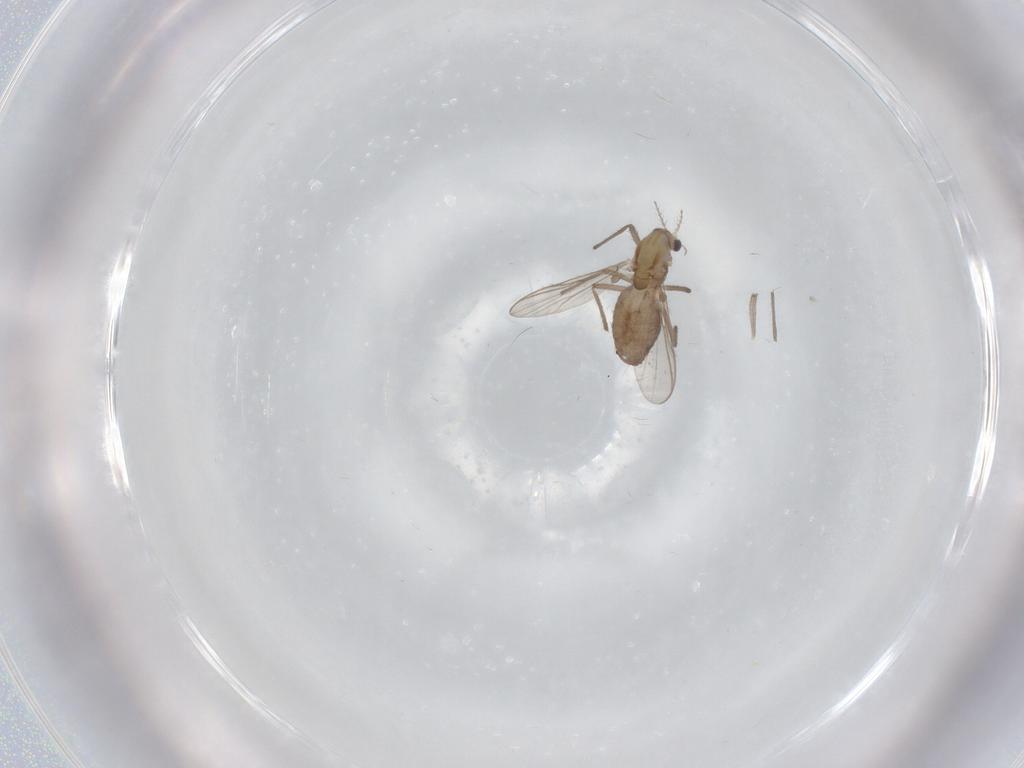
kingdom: Animalia
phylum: Arthropoda
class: Insecta
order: Diptera
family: Chironomidae
